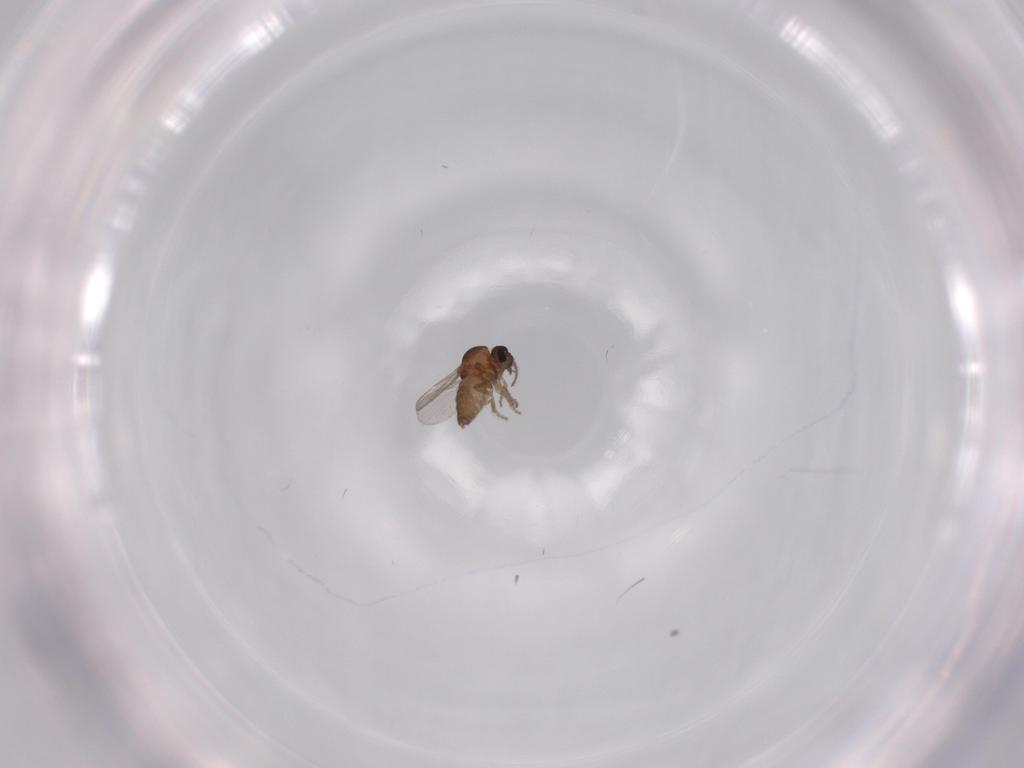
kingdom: Animalia
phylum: Arthropoda
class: Insecta
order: Diptera
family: Ceratopogonidae
